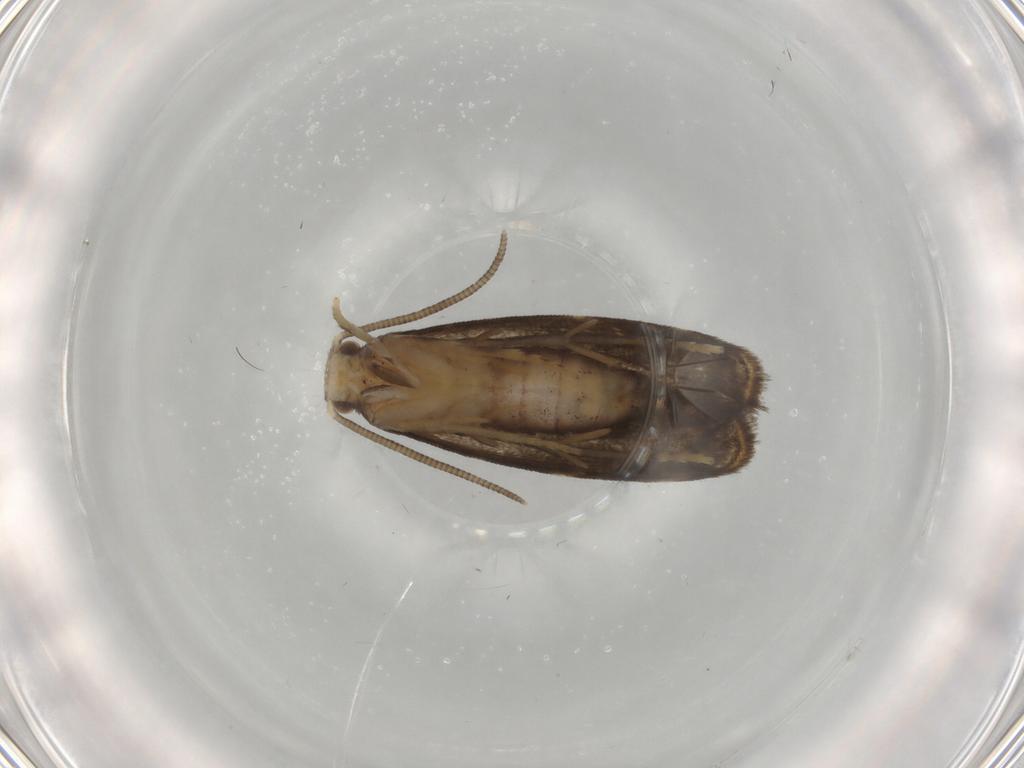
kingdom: Animalia
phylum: Arthropoda
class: Insecta
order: Lepidoptera
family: Dryadaulidae
